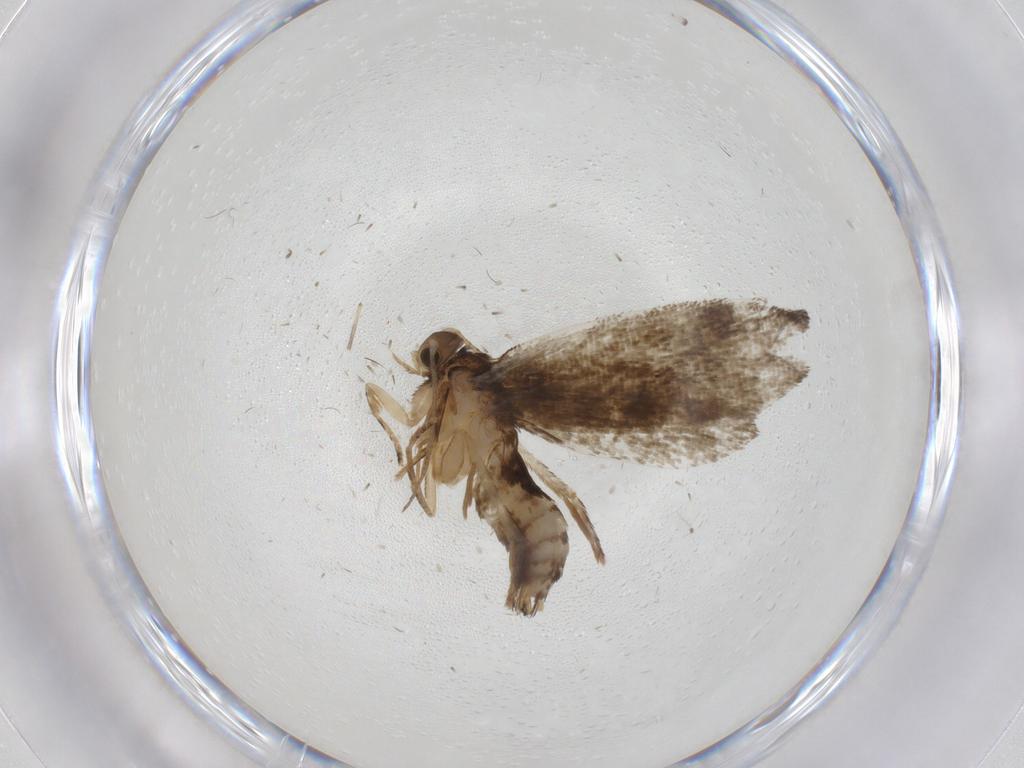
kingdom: Animalia
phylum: Arthropoda
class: Insecta
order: Lepidoptera
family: Crambidae
